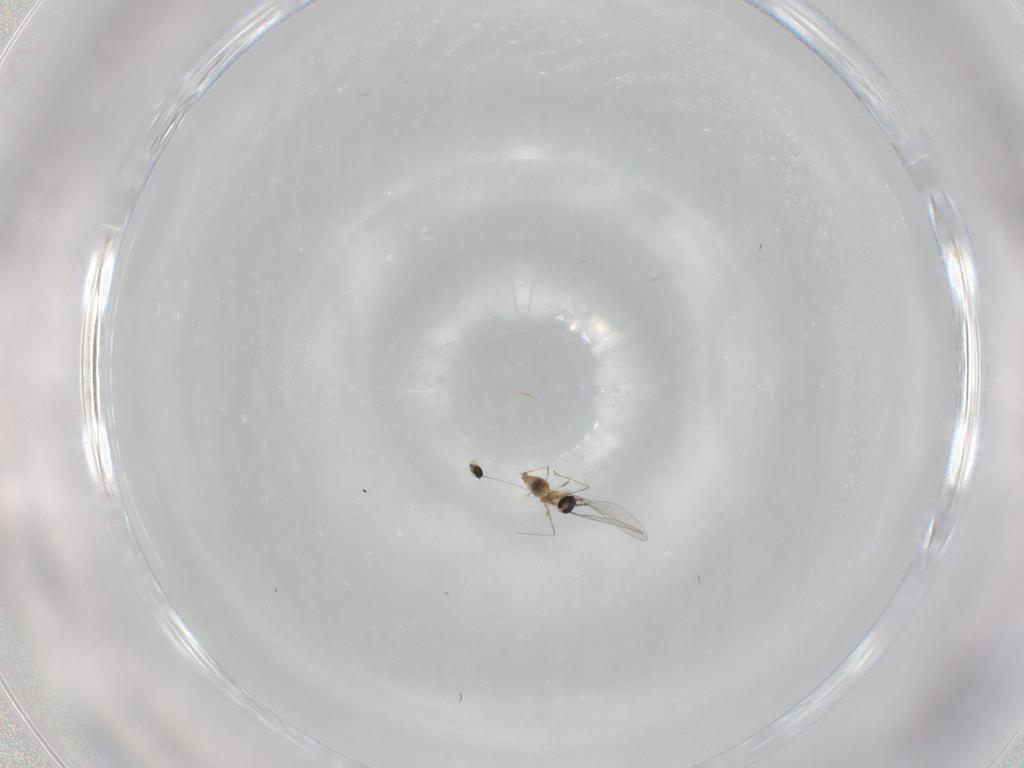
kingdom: Animalia
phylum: Arthropoda
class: Insecta
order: Diptera
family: Cecidomyiidae
